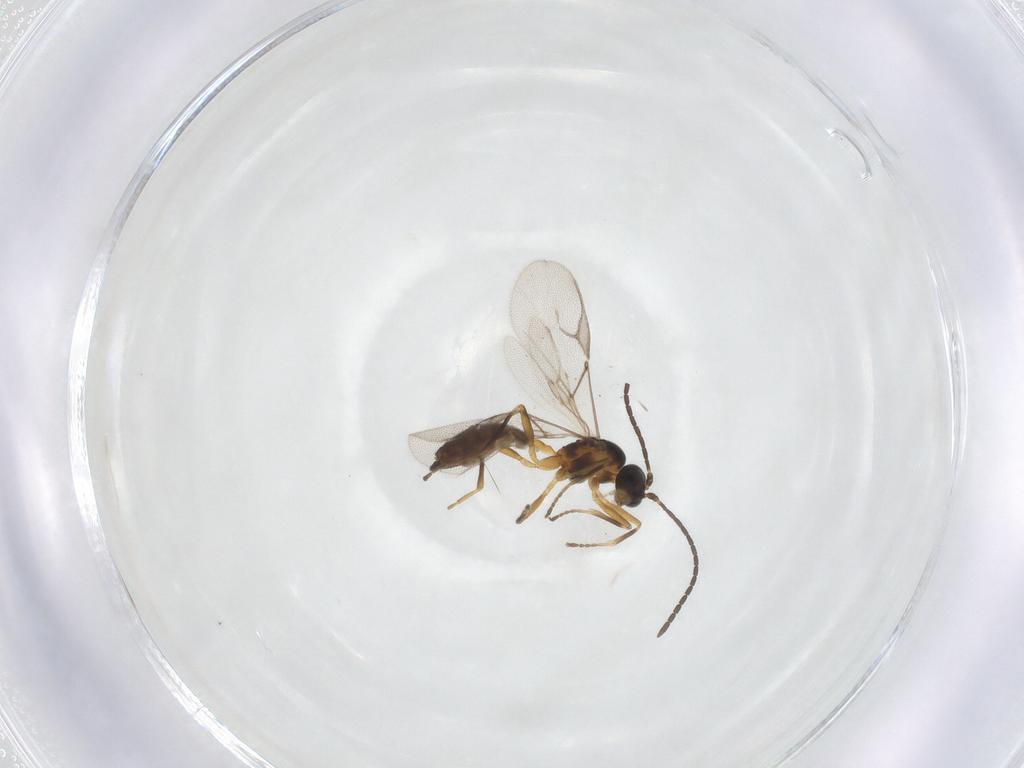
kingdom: Animalia
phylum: Arthropoda
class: Insecta
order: Hymenoptera
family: Braconidae
